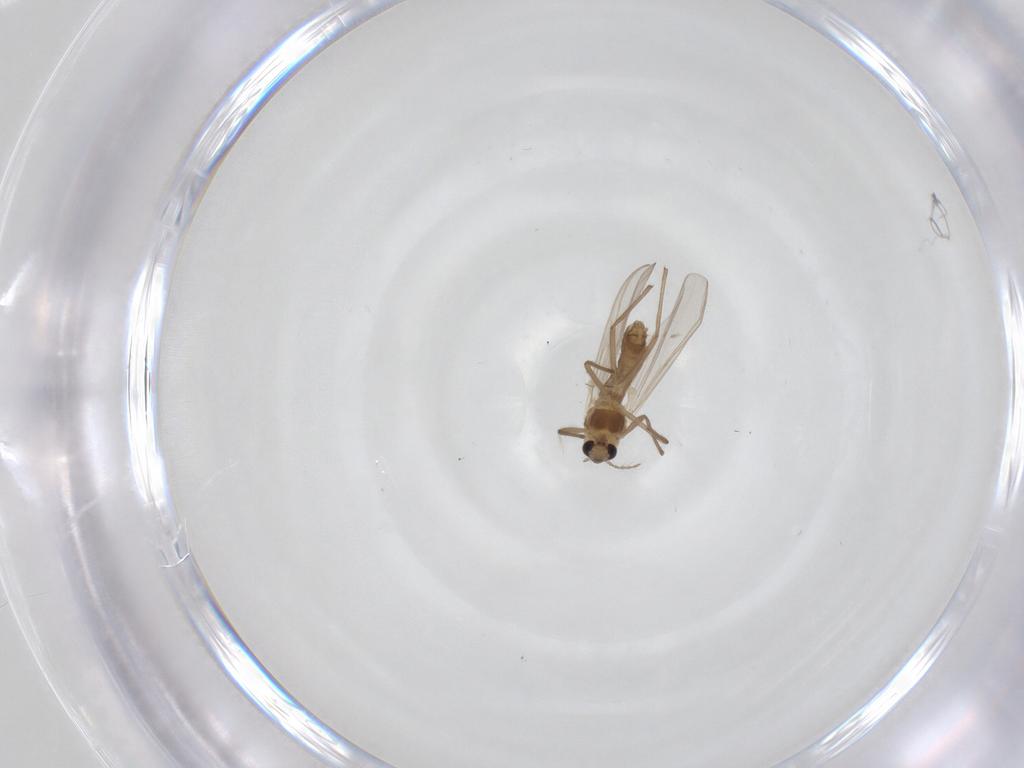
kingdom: Animalia
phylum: Arthropoda
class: Insecta
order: Diptera
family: Chironomidae
